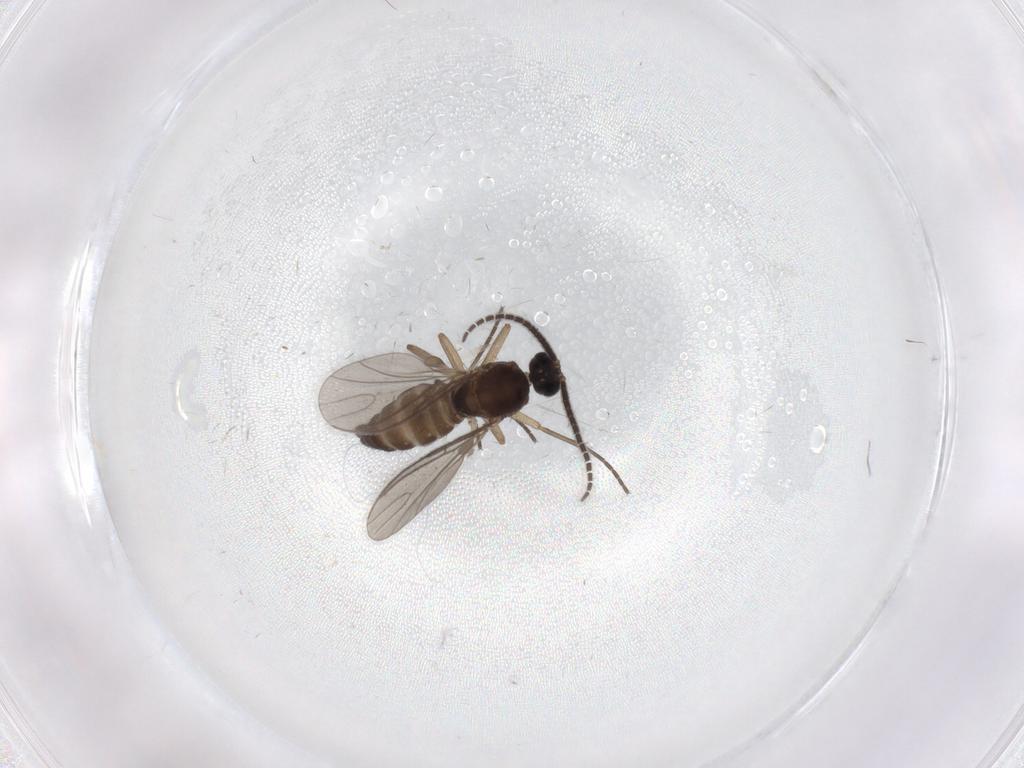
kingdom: Animalia
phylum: Arthropoda
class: Insecta
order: Diptera
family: Sciaridae
